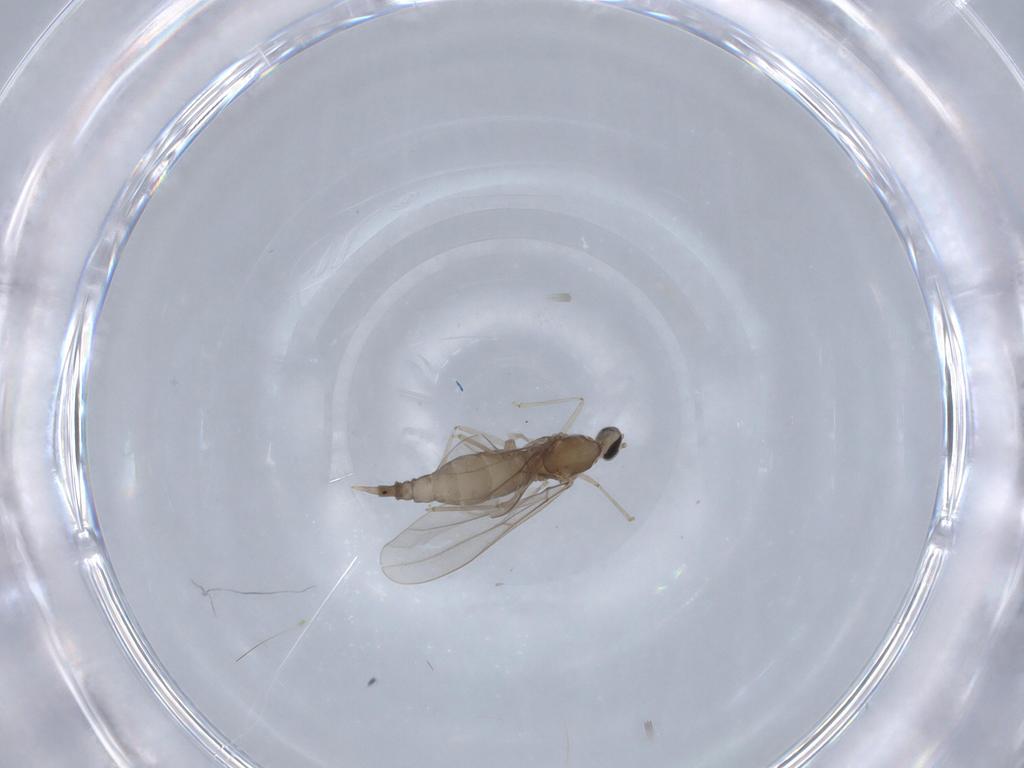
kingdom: Animalia
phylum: Arthropoda
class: Insecta
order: Diptera
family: Cecidomyiidae
